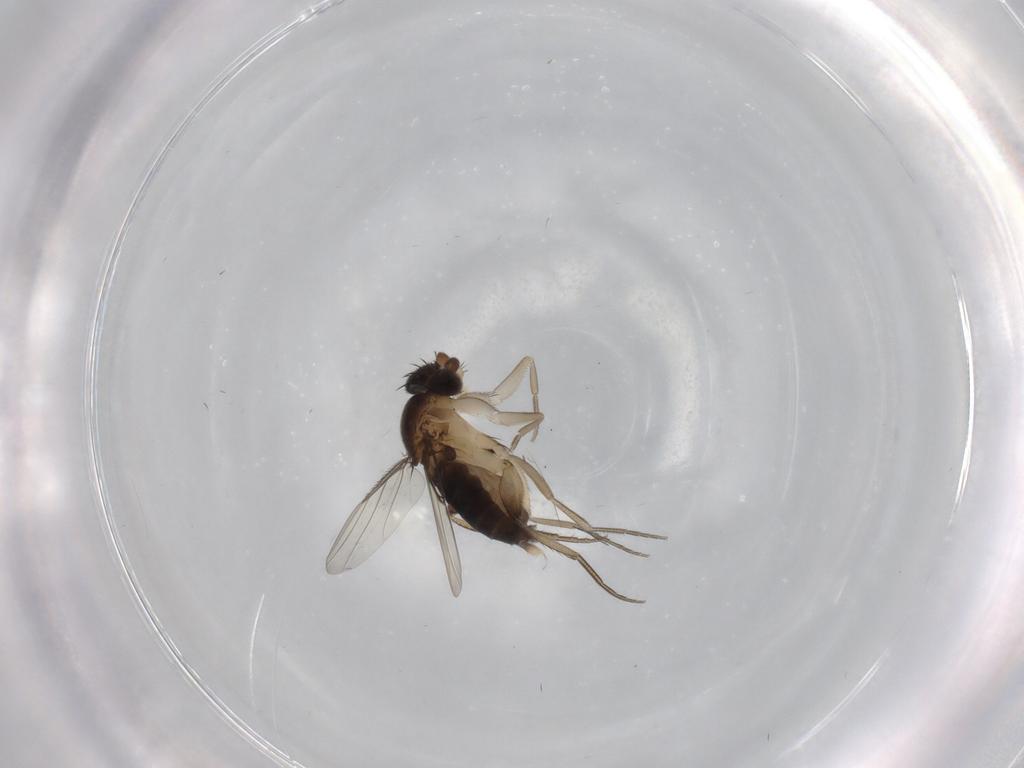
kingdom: Animalia
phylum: Arthropoda
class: Insecta
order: Diptera
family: Phoridae
